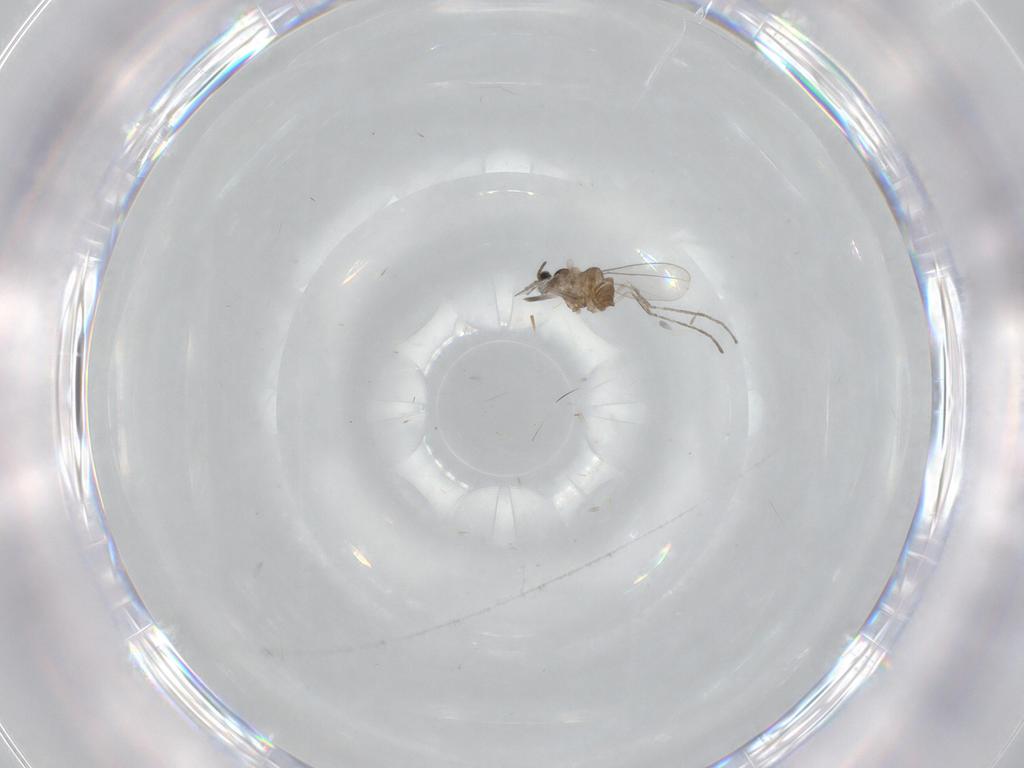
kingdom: Animalia
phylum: Arthropoda
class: Insecta
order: Diptera
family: Sciaridae
